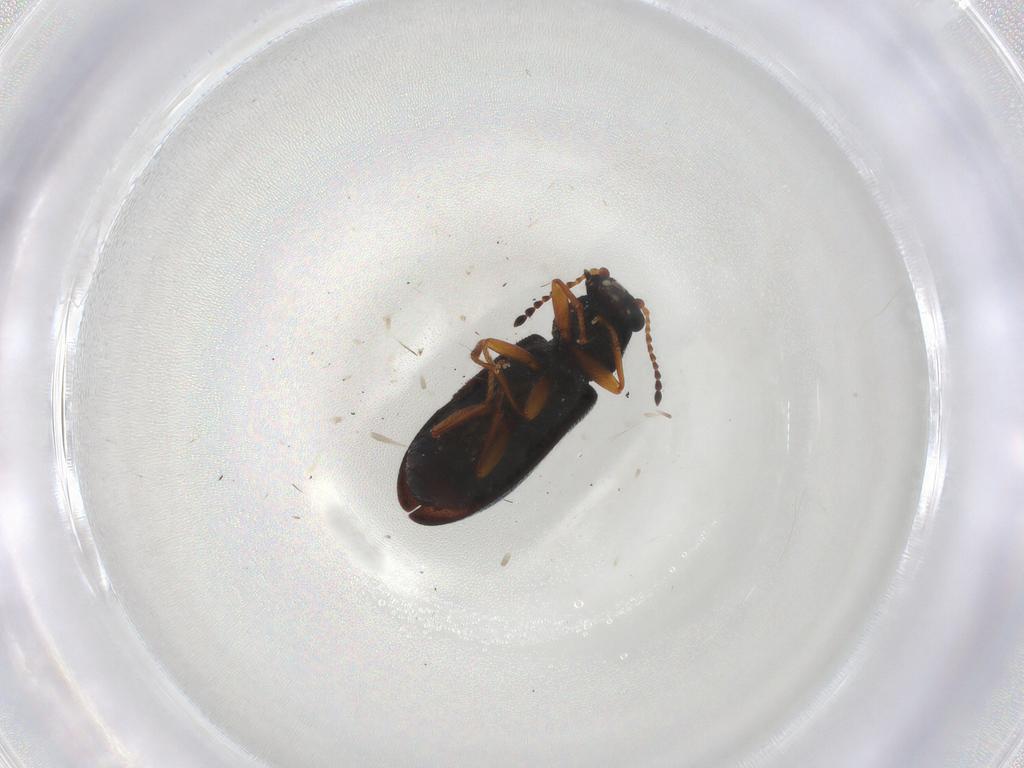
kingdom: Animalia
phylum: Arthropoda
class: Insecta
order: Coleoptera
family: Melyridae
